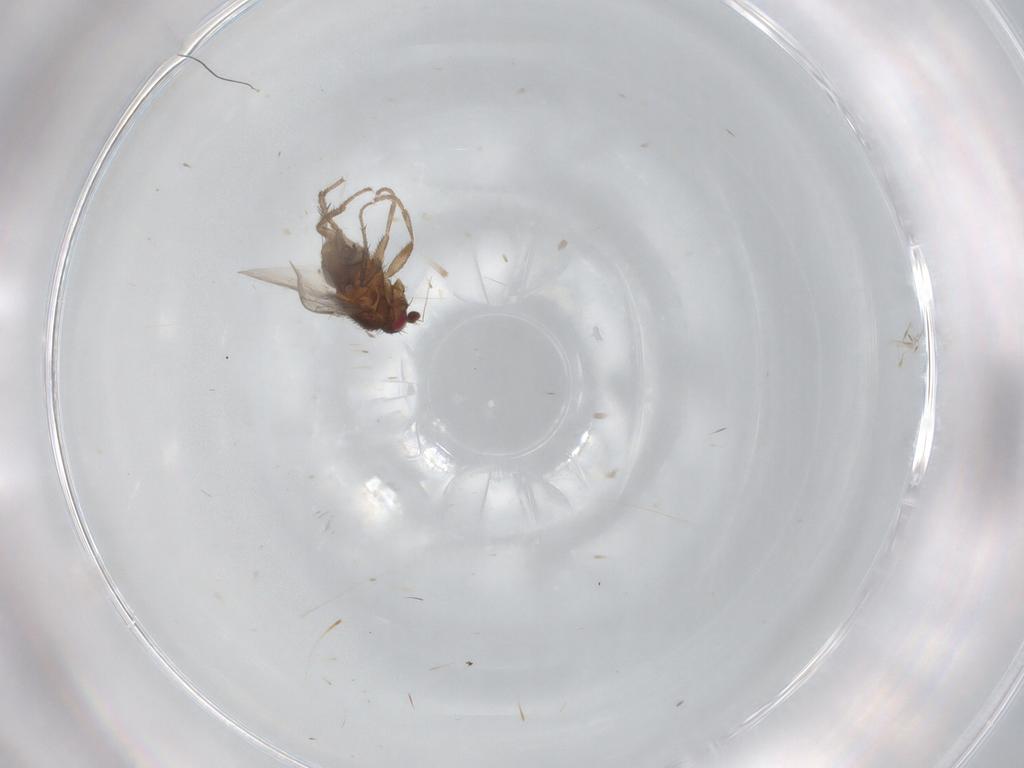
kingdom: Animalia
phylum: Arthropoda
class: Insecta
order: Diptera
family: Sphaeroceridae
